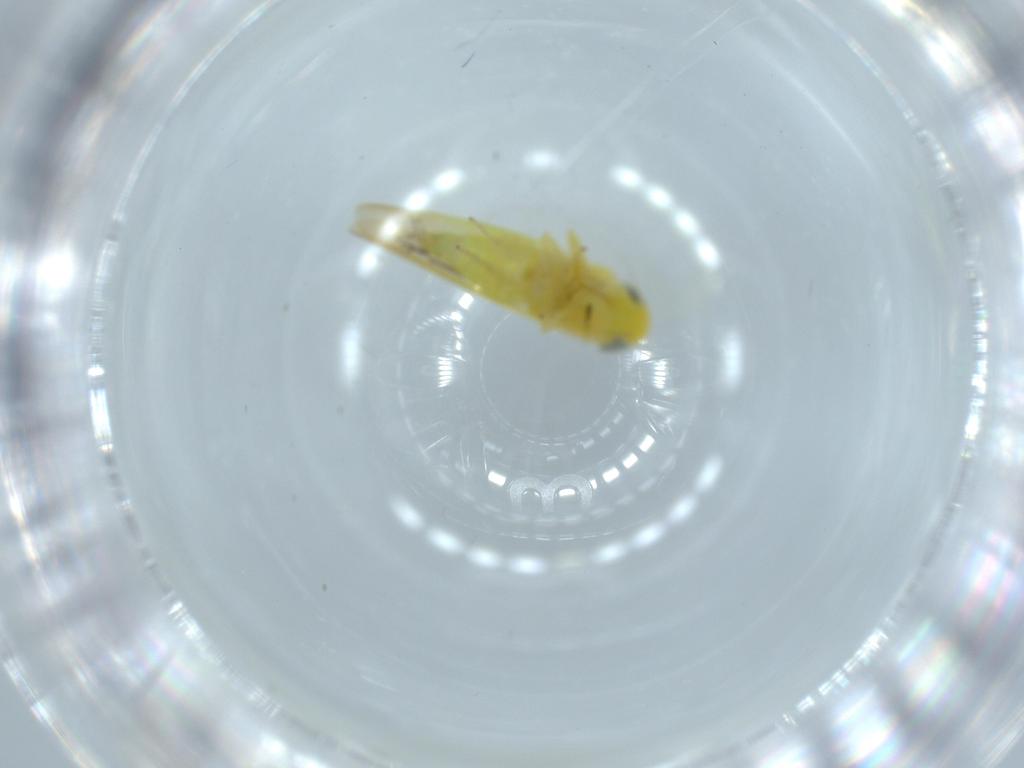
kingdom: Animalia
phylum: Arthropoda
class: Insecta
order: Hemiptera
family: Cicadellidae
